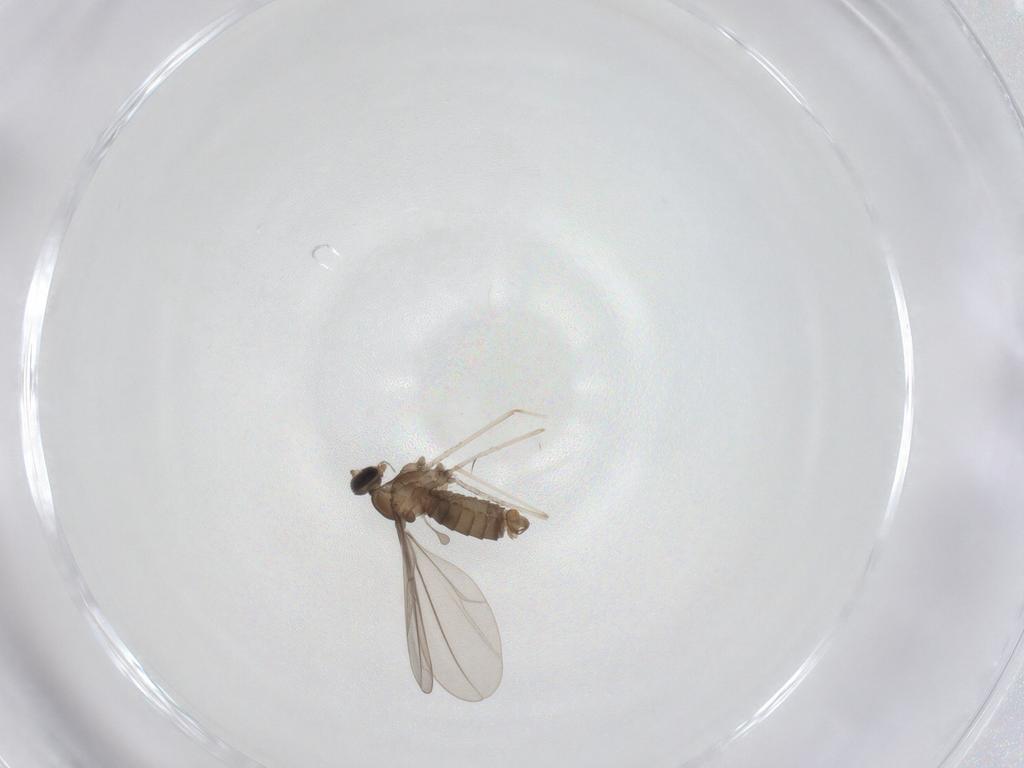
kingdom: Animalia
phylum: Arthropoda
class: Insecta
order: Diptera
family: Cecidomyiidae
